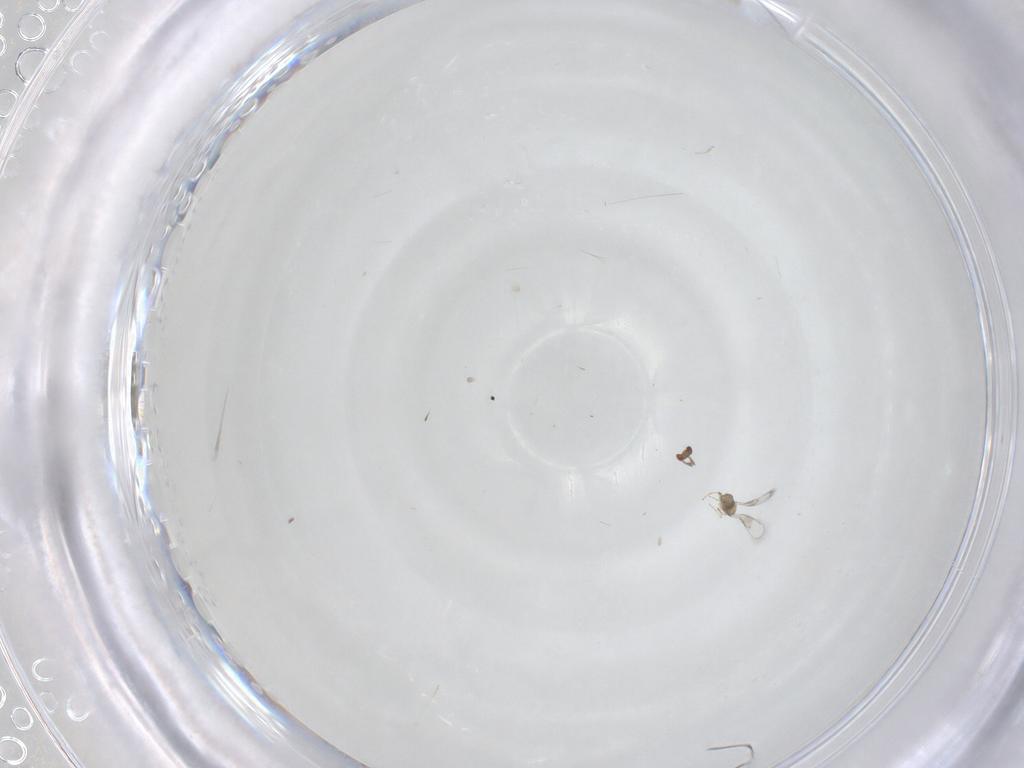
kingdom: Animalia
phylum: Arthropoda
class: Insecta
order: Hymenoptera
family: Trichogrammatidae
